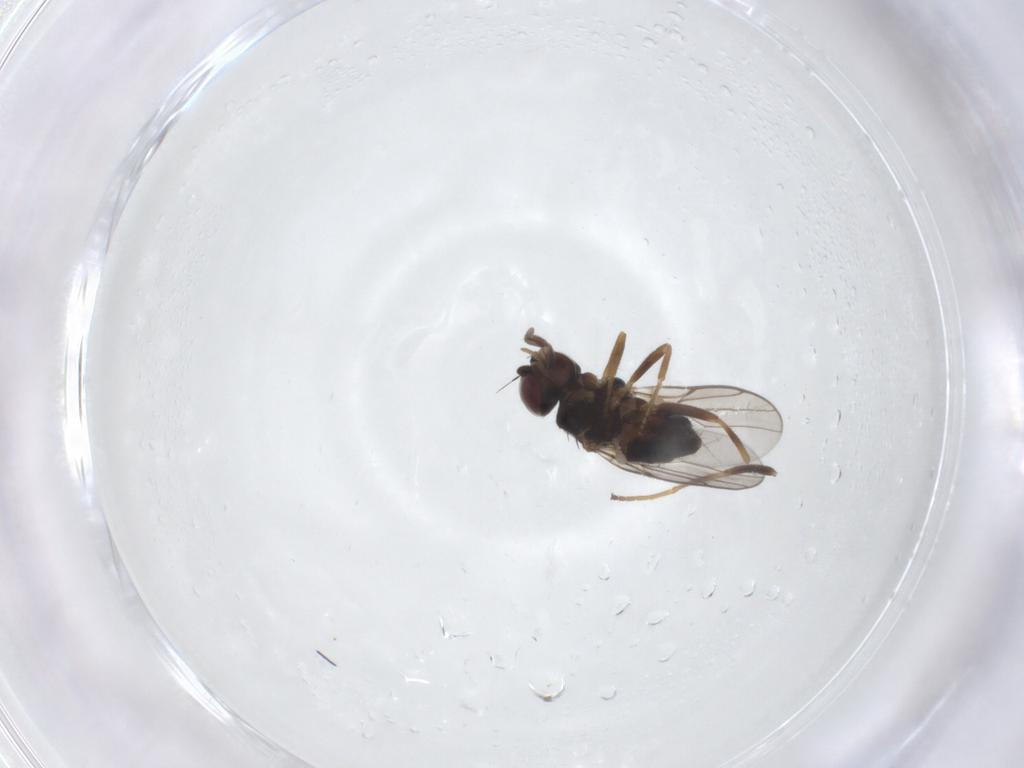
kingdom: Animalia
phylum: Arthropoda
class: Insecta
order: Diptera
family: Chloropidae
